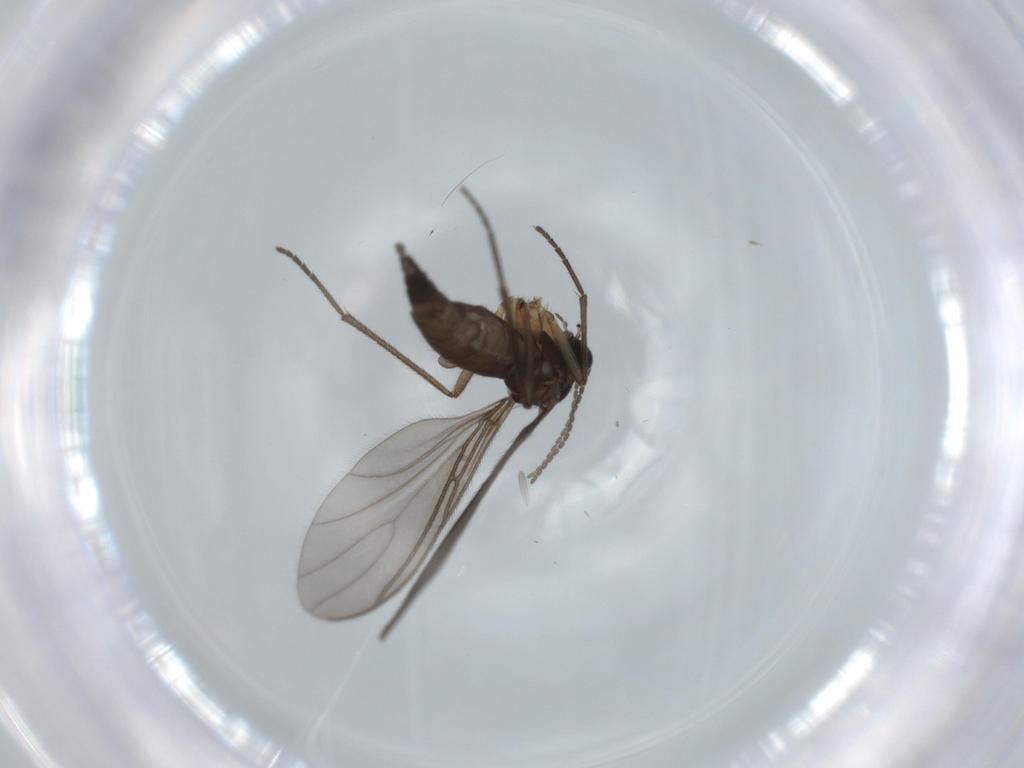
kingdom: Animalia
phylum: Arthropoda
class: Insecta
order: Diptera
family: Sciaridae
